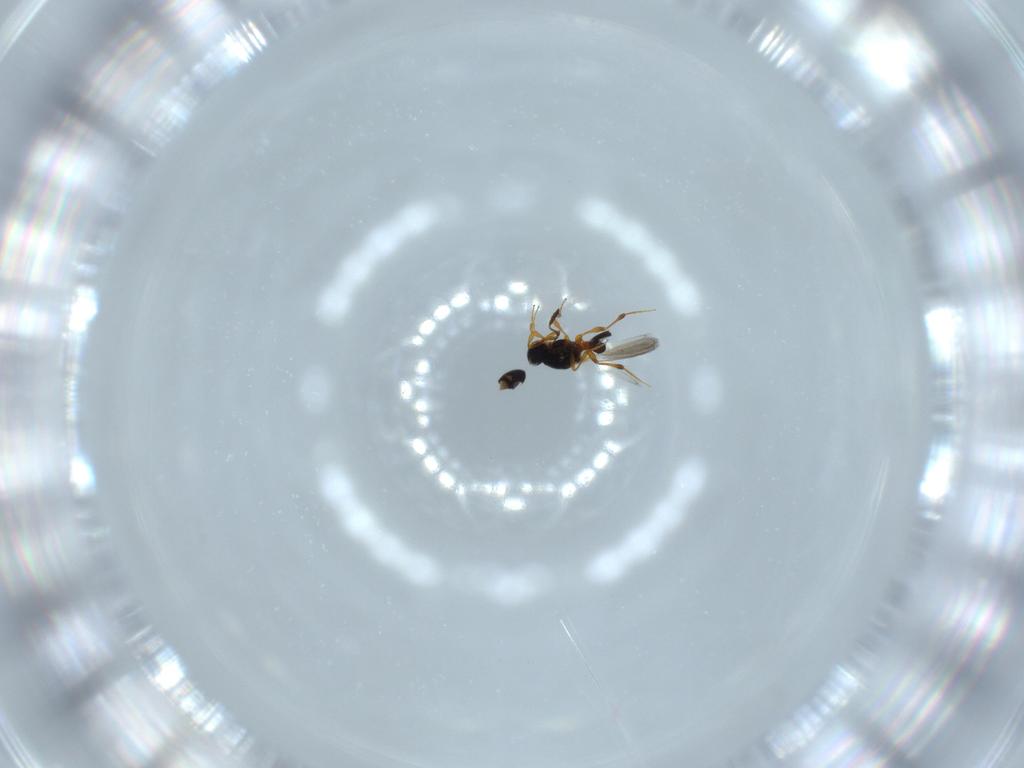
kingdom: Animalia
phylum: Arthropoda
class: Insecta
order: Hymenoptera
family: Platygastridae
